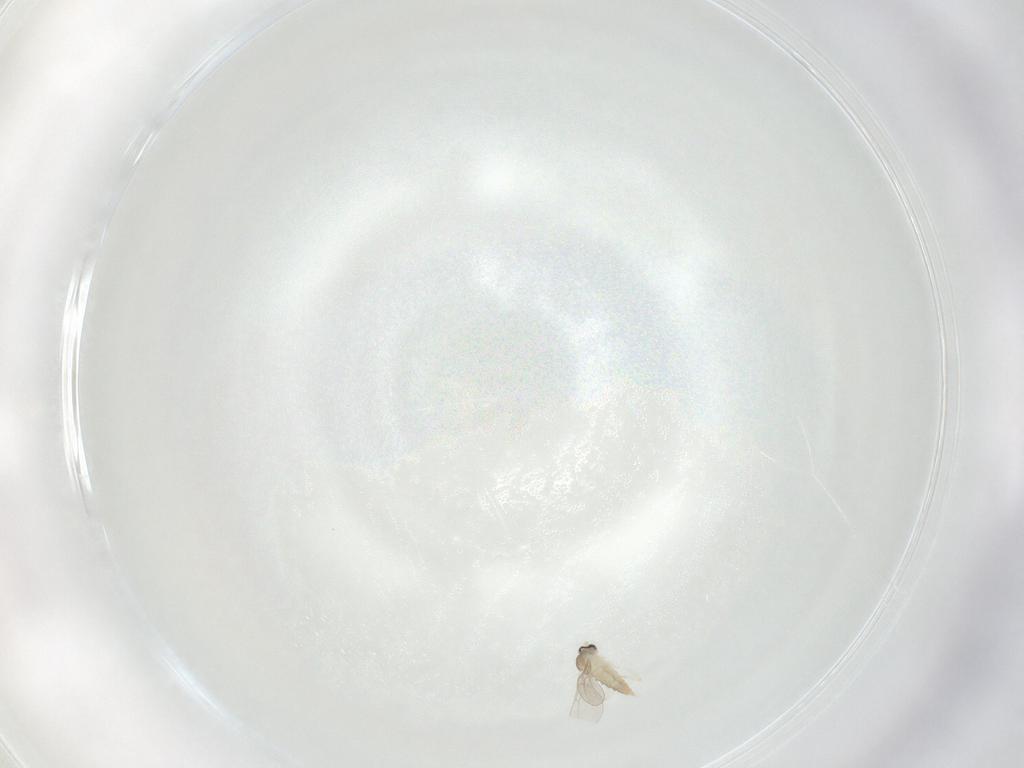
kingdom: Animalia
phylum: Arthropoda
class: Insecta
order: Diptera
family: Cecidomyiidae
